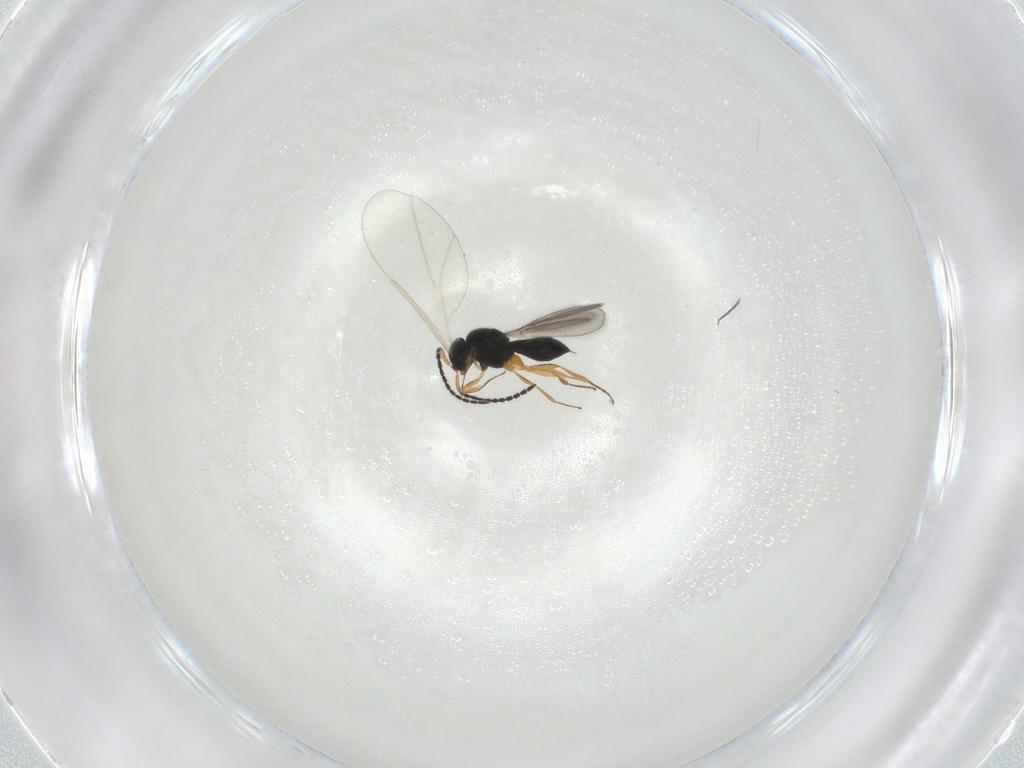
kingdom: Animalia
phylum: Arthropoda
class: Insecta
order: Hymenoptera
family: Scelionidae
